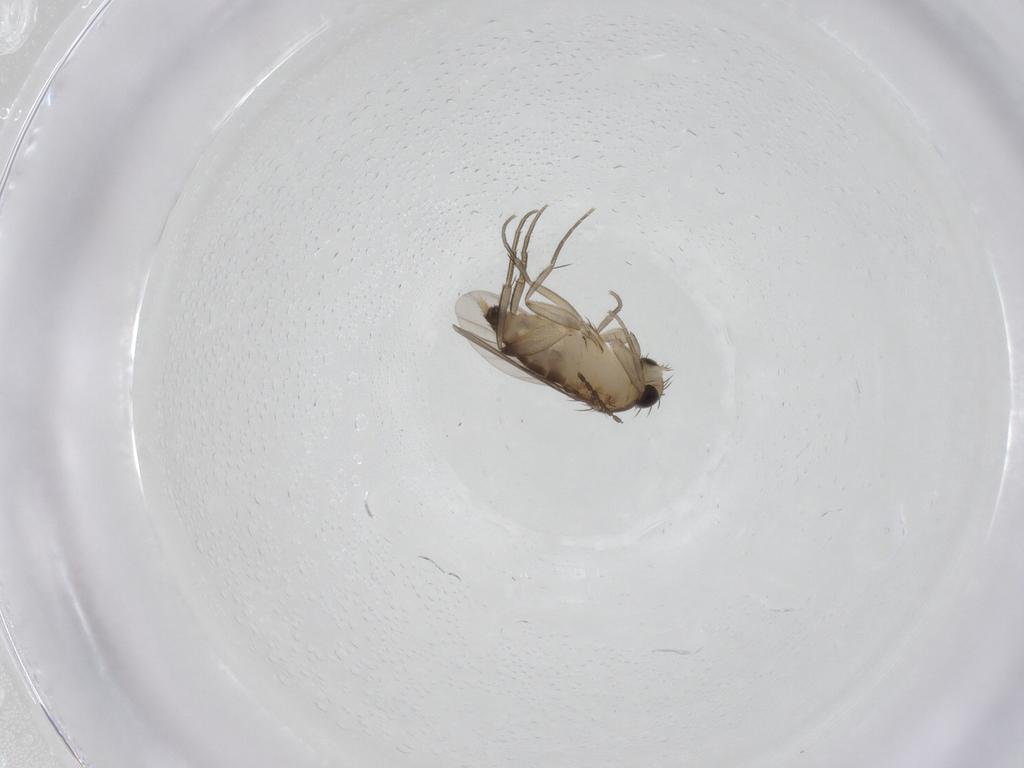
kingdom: Animalia
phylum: Arthropoda
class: Insecta
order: Diptera
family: Phoridae
